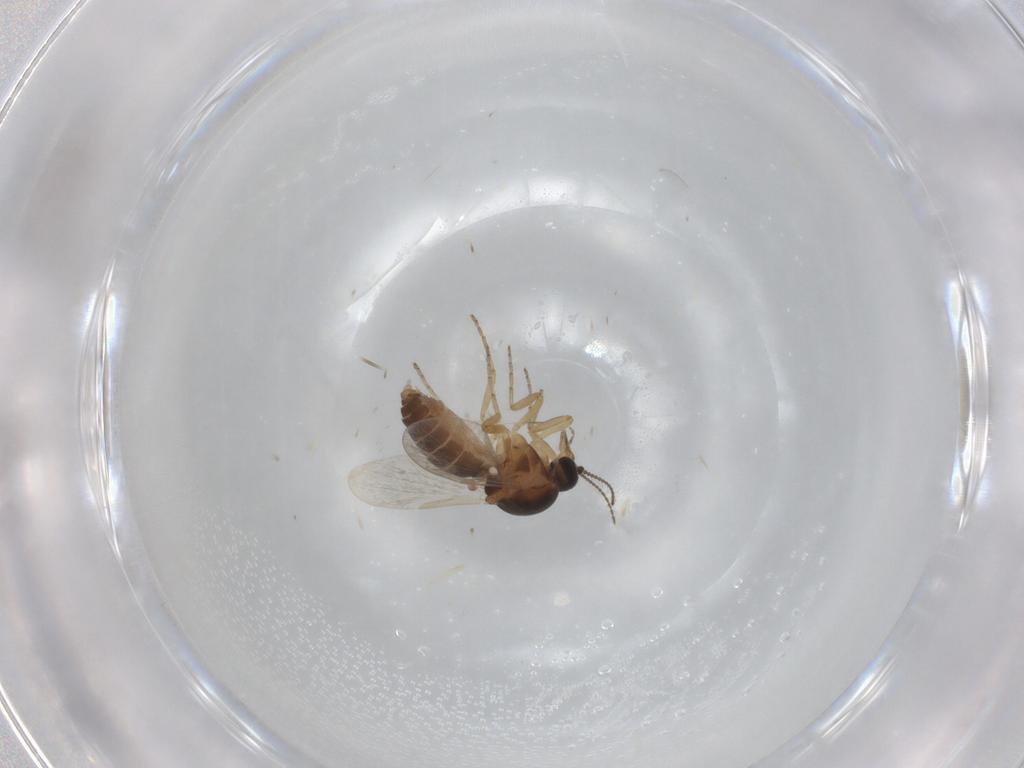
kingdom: Animalia
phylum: Arthropoda
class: Insecta
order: Diptera
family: Ceratopogonidae
